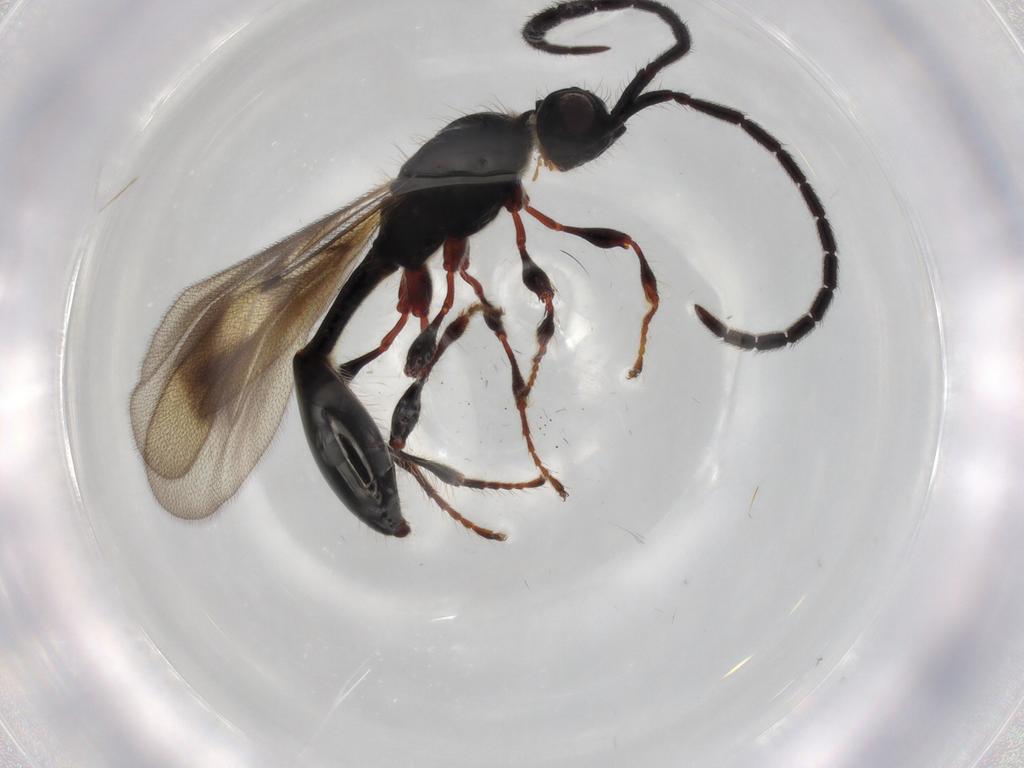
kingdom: Animalia
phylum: Arthropoda
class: Insecta
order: Hymenoptera
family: Diapriidae
